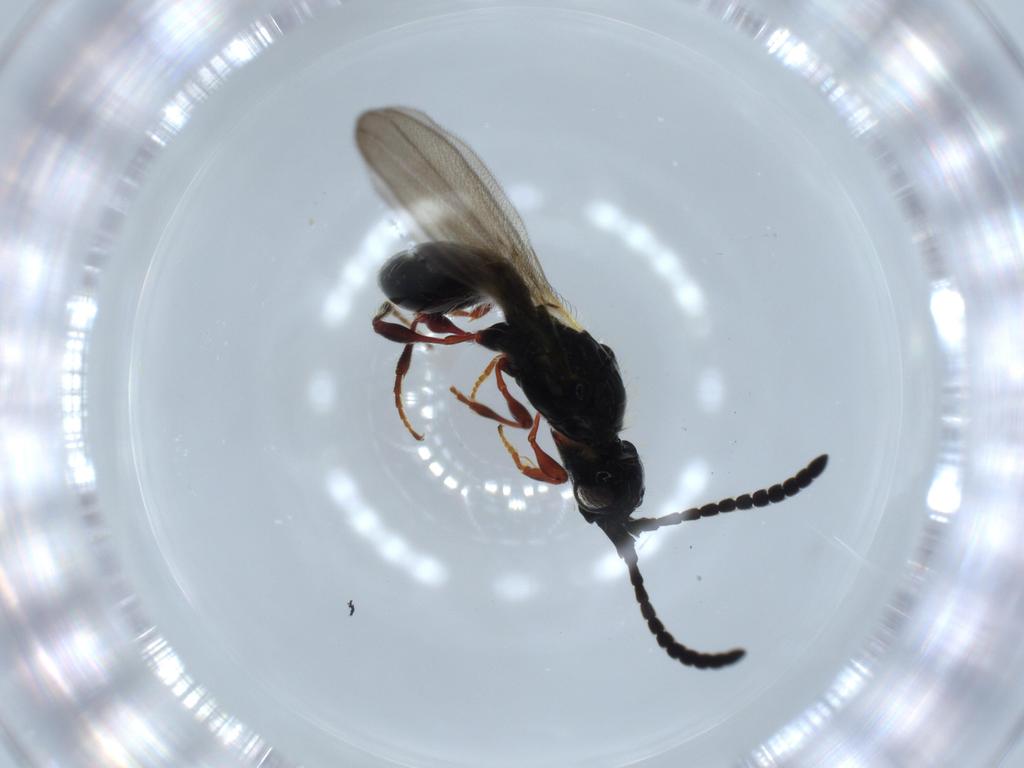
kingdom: Animalia
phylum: Arthropoda
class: Insecta
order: Hymenoptera
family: Diapriidae
